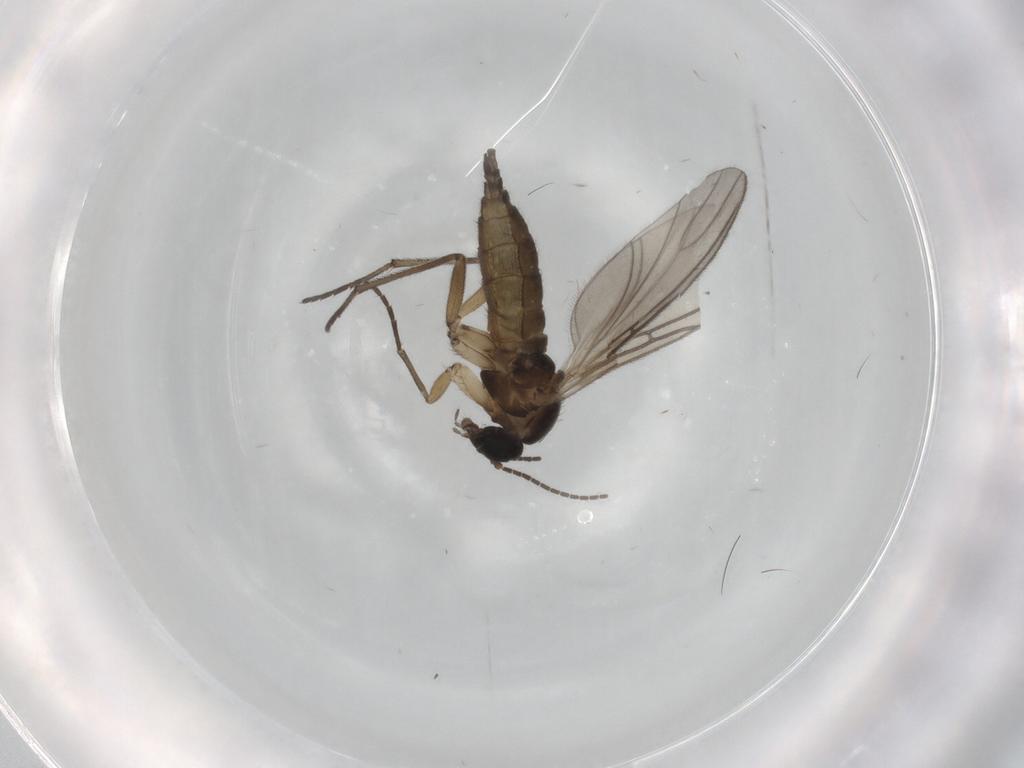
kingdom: Animalia
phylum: Arthropoda
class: Insecta
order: Diptera
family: Sciaridae
